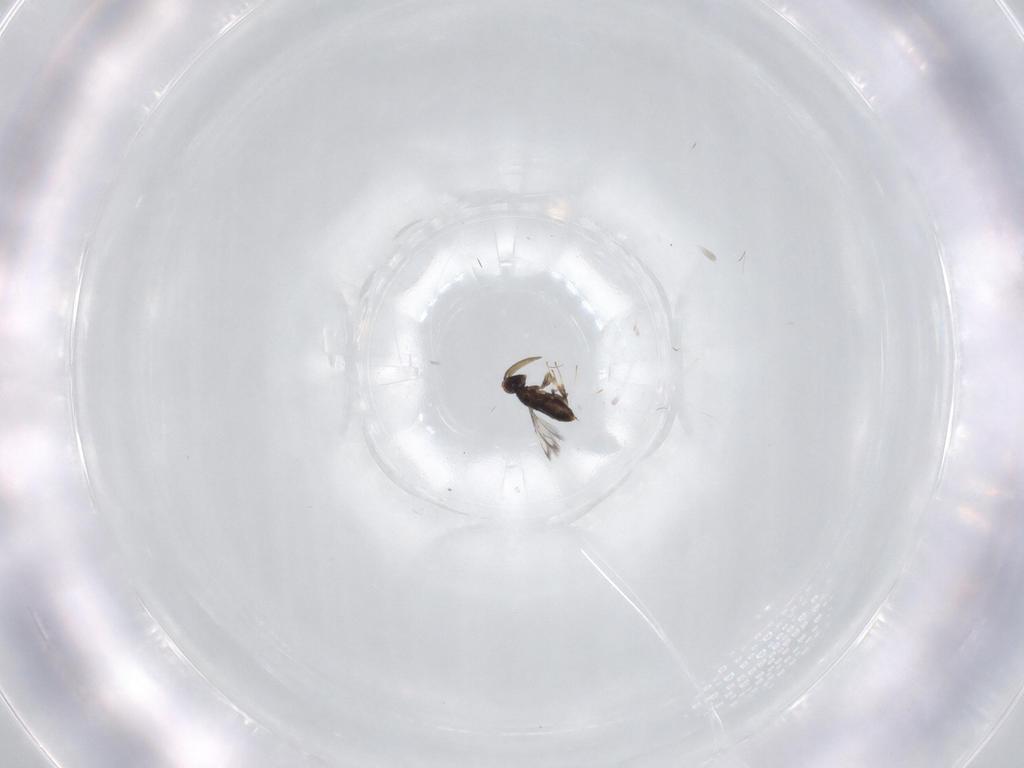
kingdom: Animalia
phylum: Arthropoda
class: Insecta
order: Hymenoptera
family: Signiphoridae
